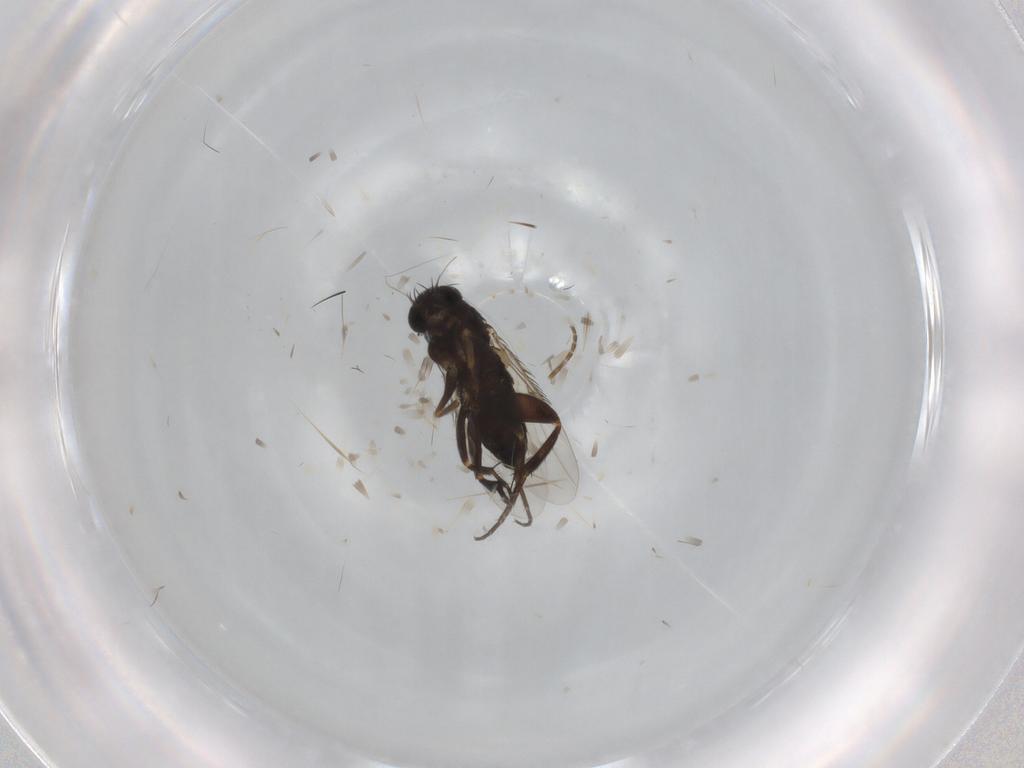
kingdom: Animalia
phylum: Arthropoda
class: Insecta
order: Diptera
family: Phoridae
